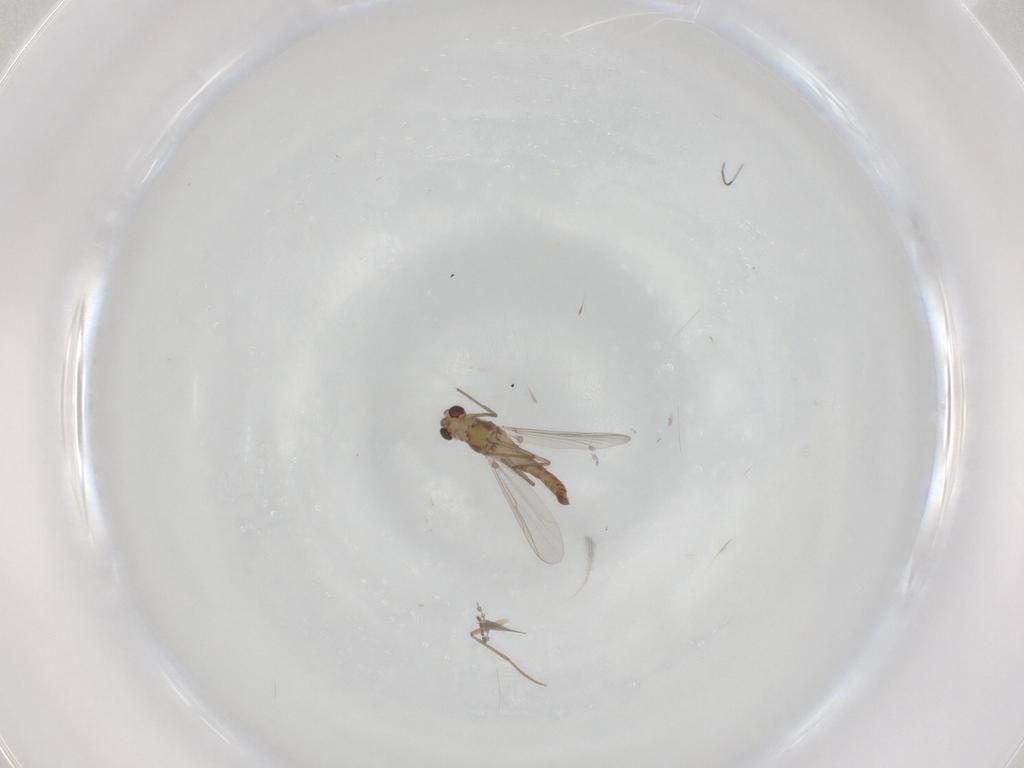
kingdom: Animalia
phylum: Arthropoda
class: Insecta
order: Diptera
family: Chironomidae
